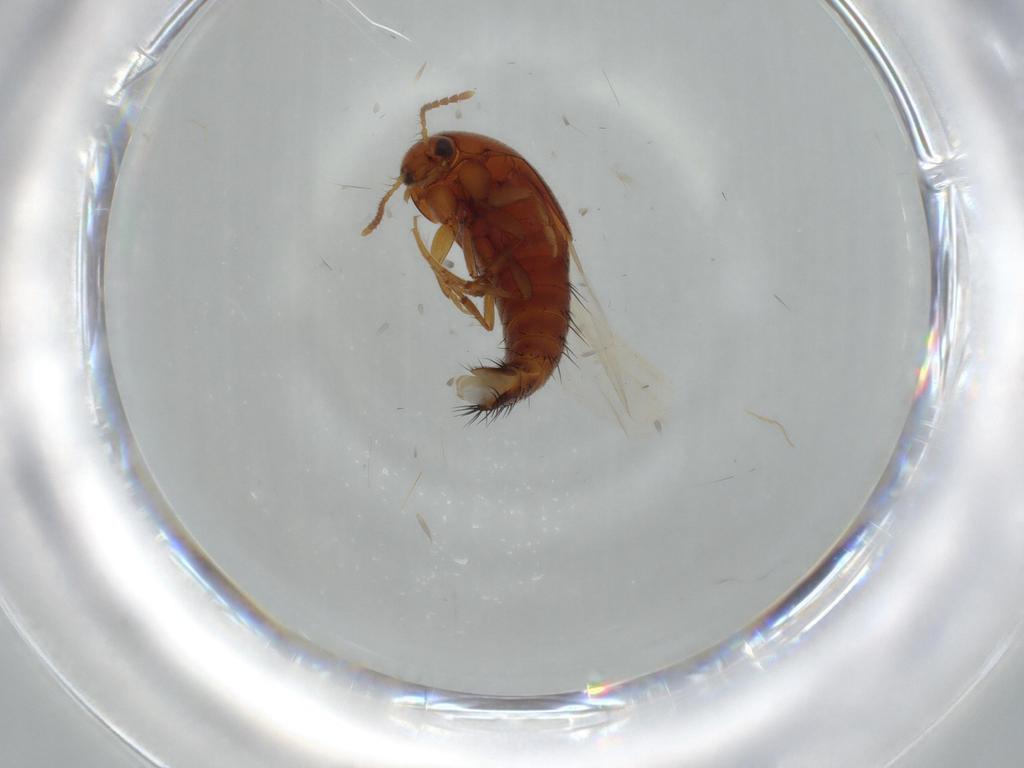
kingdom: Animalia
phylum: Arthropoda
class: Insecta
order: Coleoptera
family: Staphylinidae
